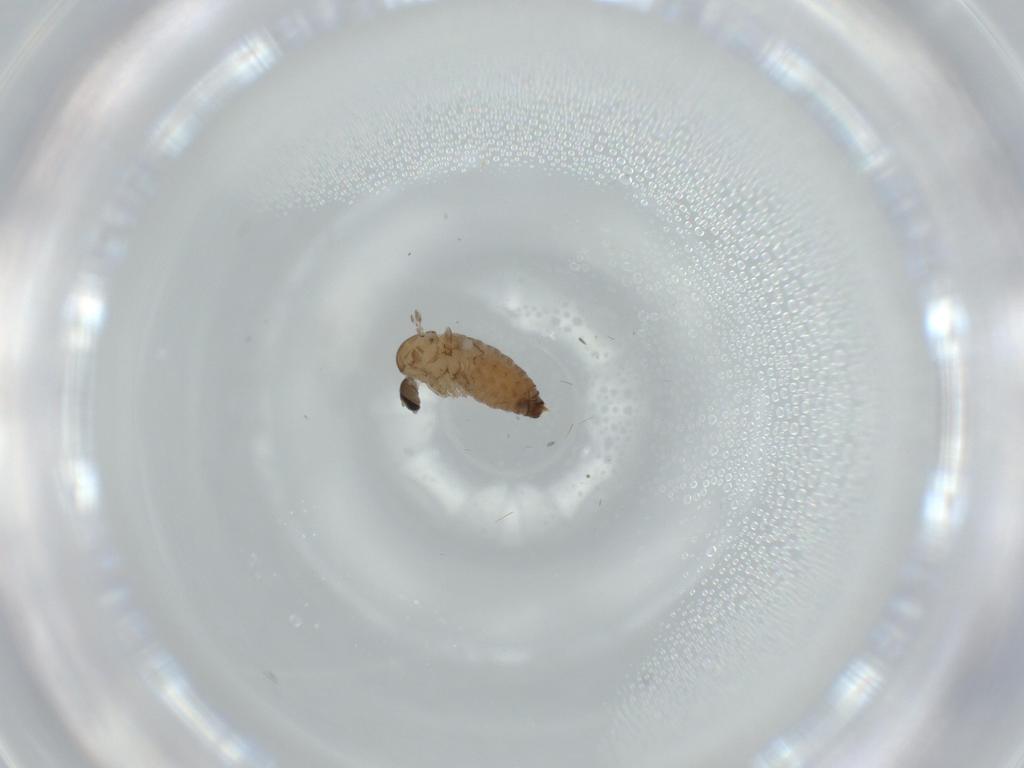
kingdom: Animalia
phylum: Arthropoda
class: Insecta
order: Diptera
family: Psychodidae
